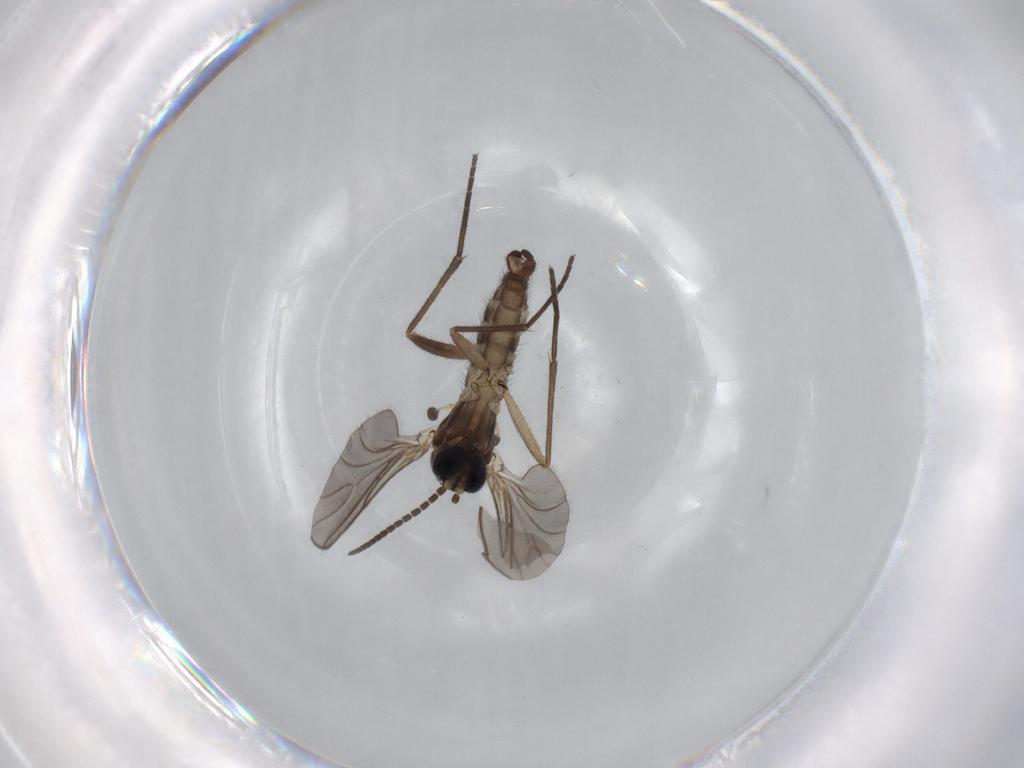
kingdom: Animalia
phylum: Arthropoda
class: Insecta
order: Diptera
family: Sciaridae
